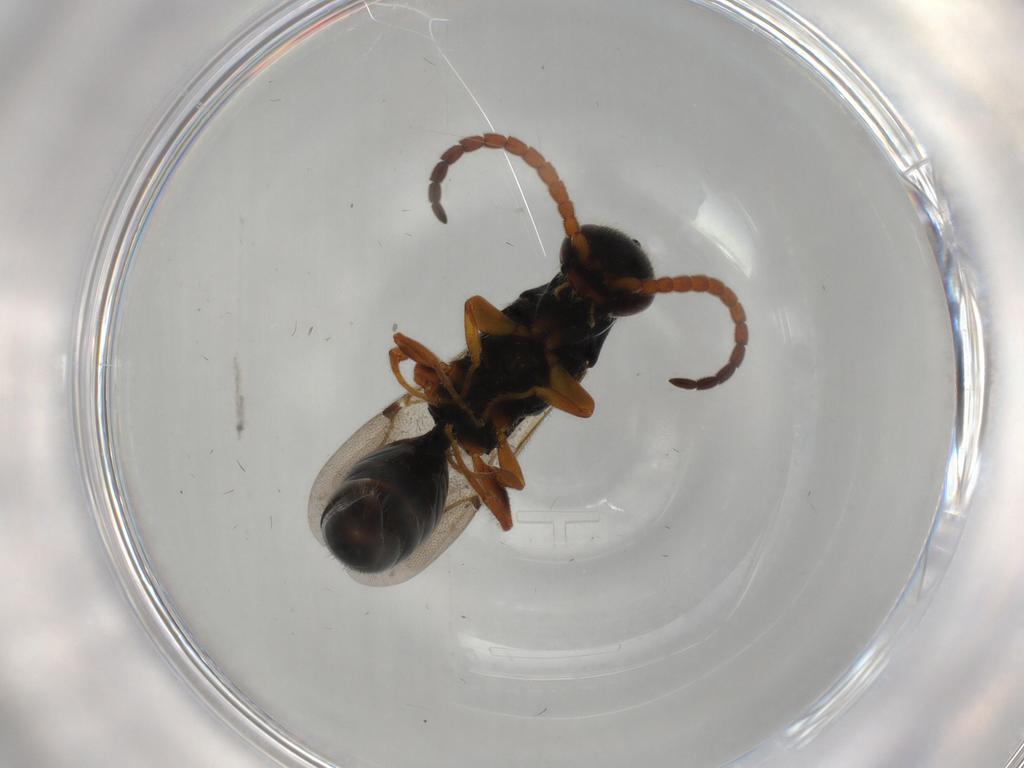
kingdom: Animalia
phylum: Arthropoda
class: Insecta
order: Hymenoptera
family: Bethylidae
